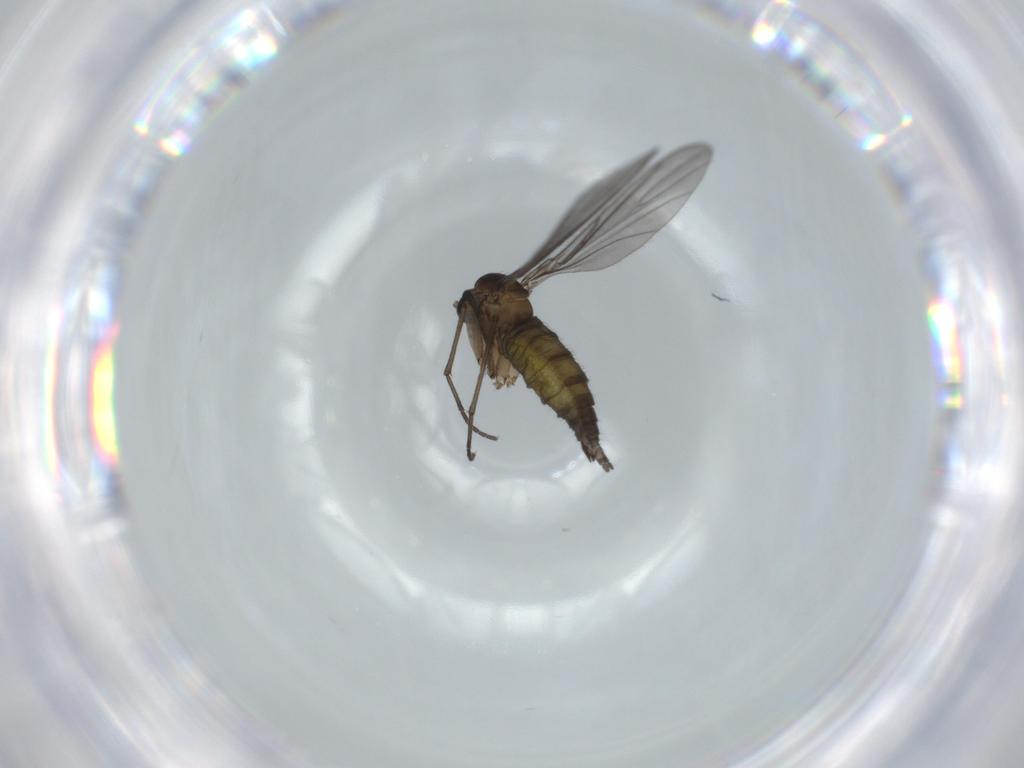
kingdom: Animalia
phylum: Arthropoda
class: Insecta
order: Diptera
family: Sciaridae
